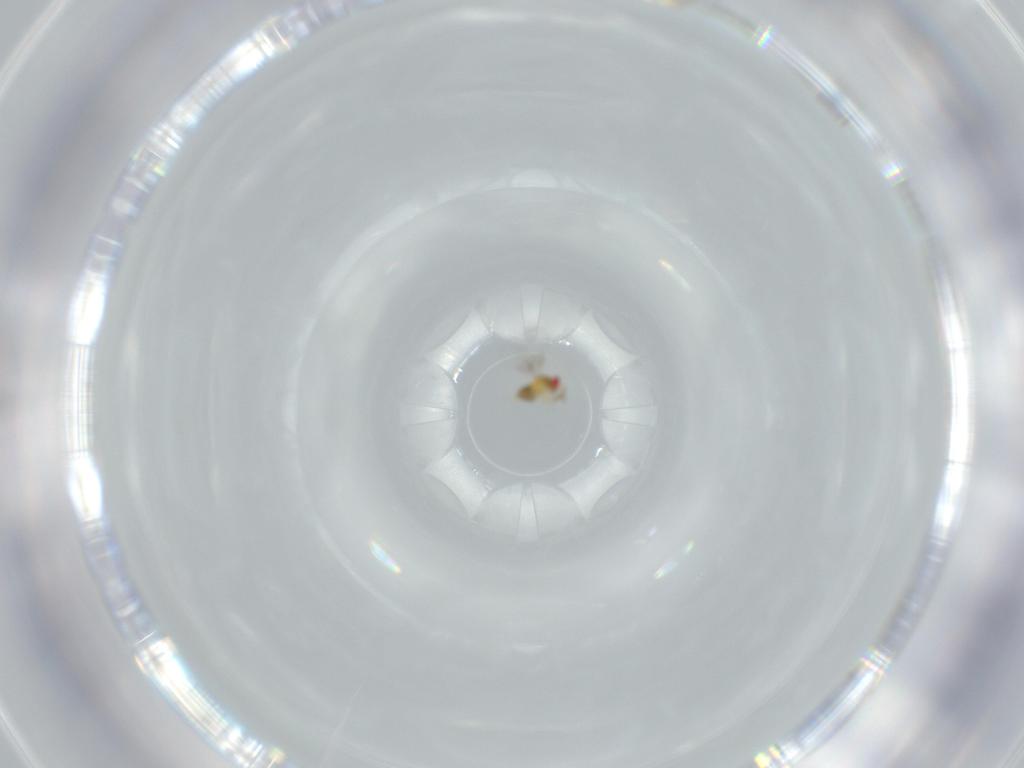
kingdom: Animalia
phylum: Arthropoda
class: Insecta
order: Hymenoptera
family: Trichogrammatidae
